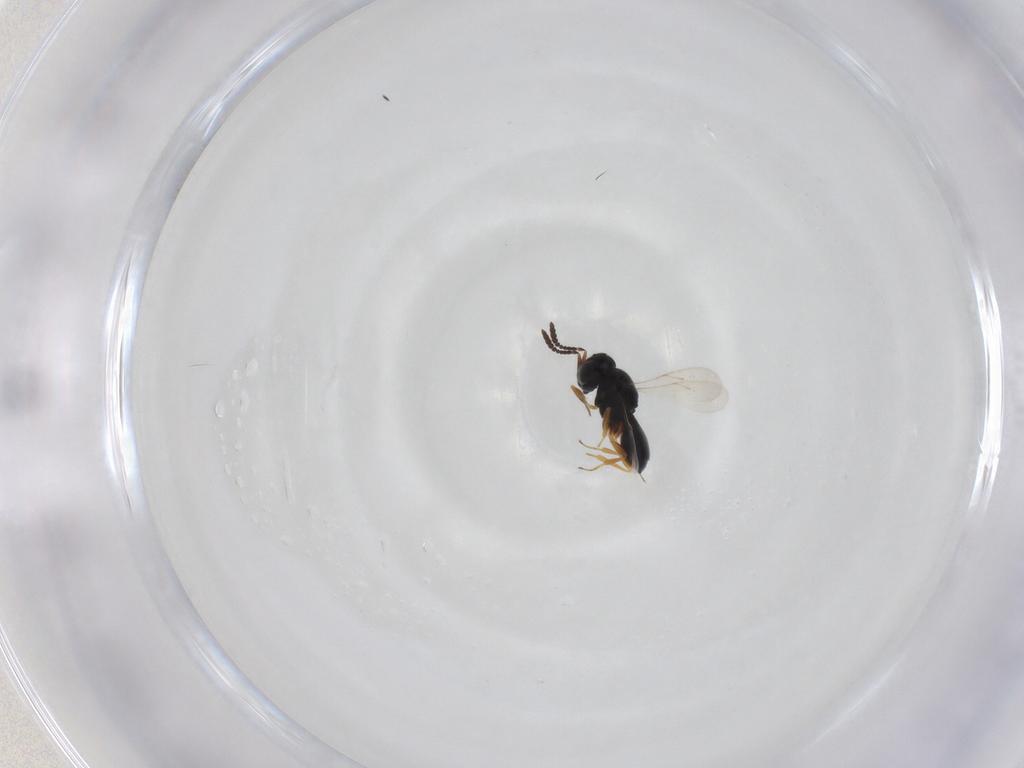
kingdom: Animalia
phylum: Arthropoda
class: Insecta
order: Hymenoptera
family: Scelionidae
